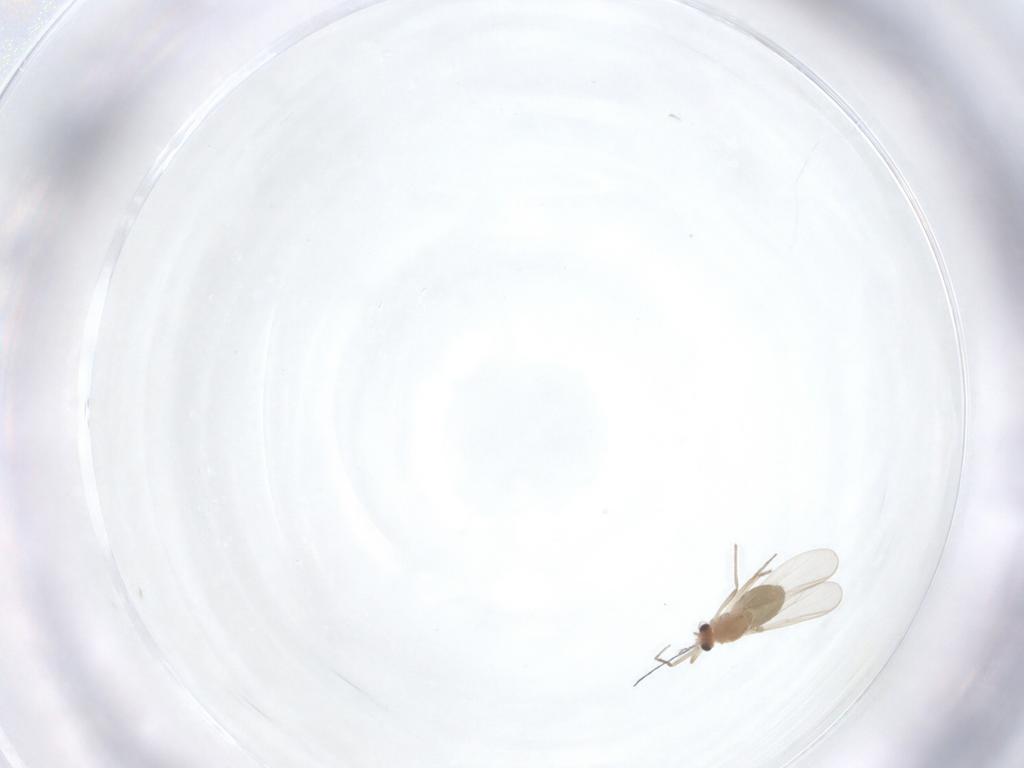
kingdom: Animalia
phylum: Arthropoda
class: Insecta
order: Diptera
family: Chironomidae
